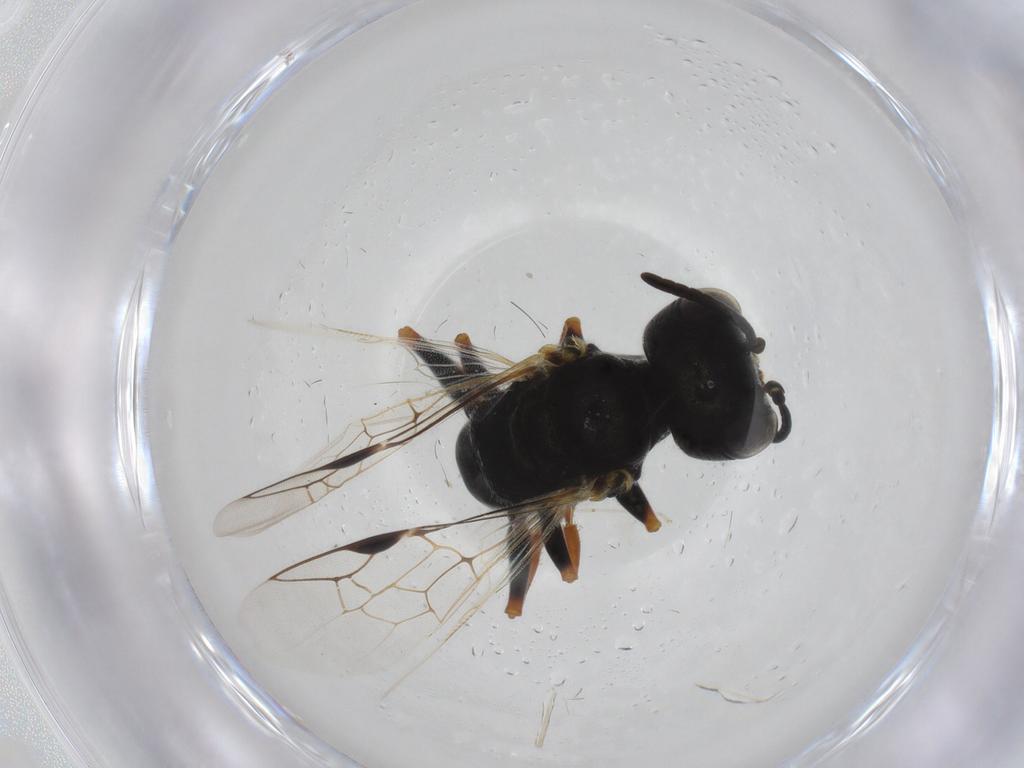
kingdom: Animalia
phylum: Arthropoda
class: Insecta
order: Hymenoptera
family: Pemphredonidae
